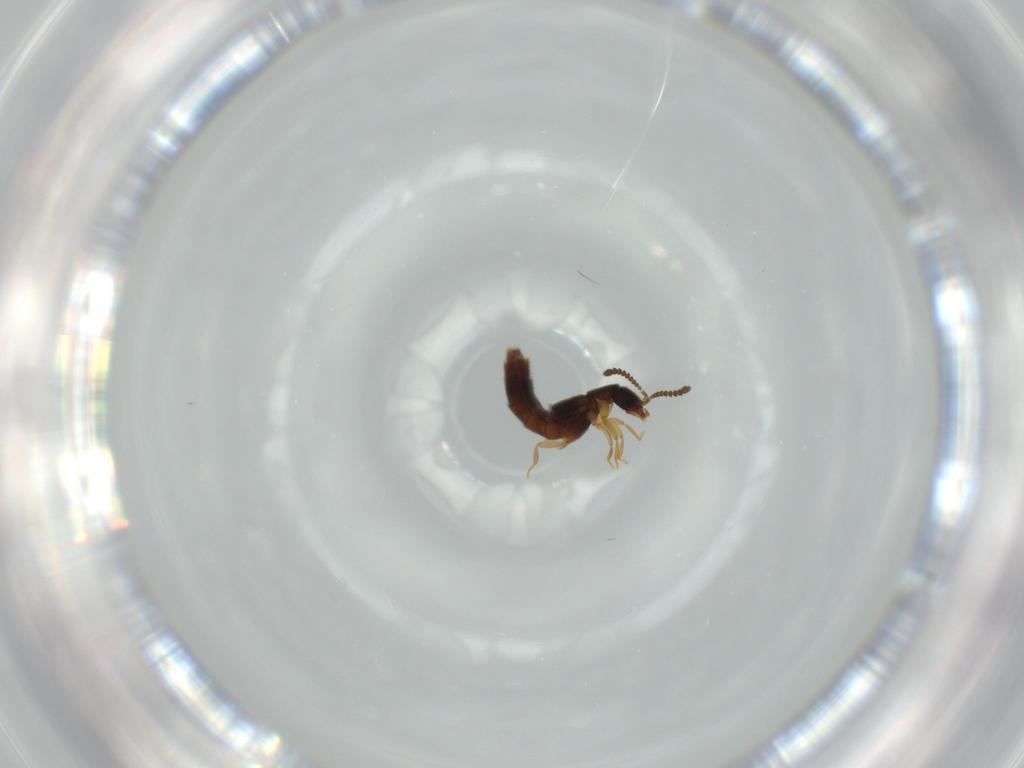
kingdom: Animalia
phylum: Arthropoda
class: Insecta
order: Coleoptera
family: Staphylinidae
